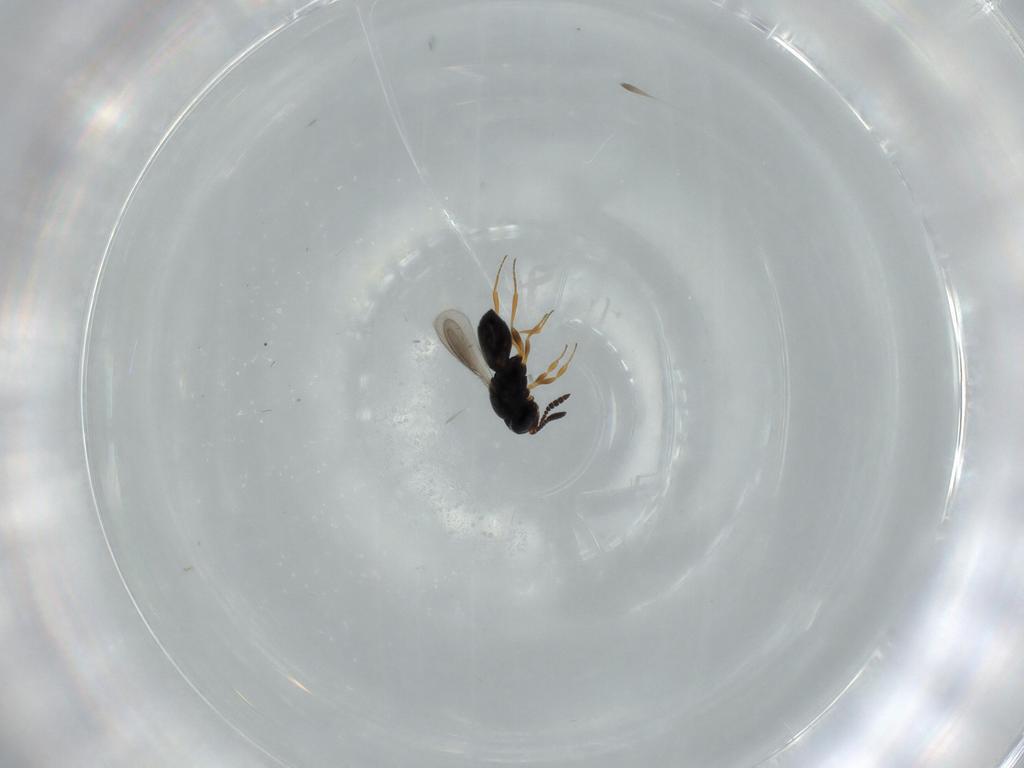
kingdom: Animalia
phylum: Arthropoda
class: Insecta
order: Hymenoptera
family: Scelionidae
